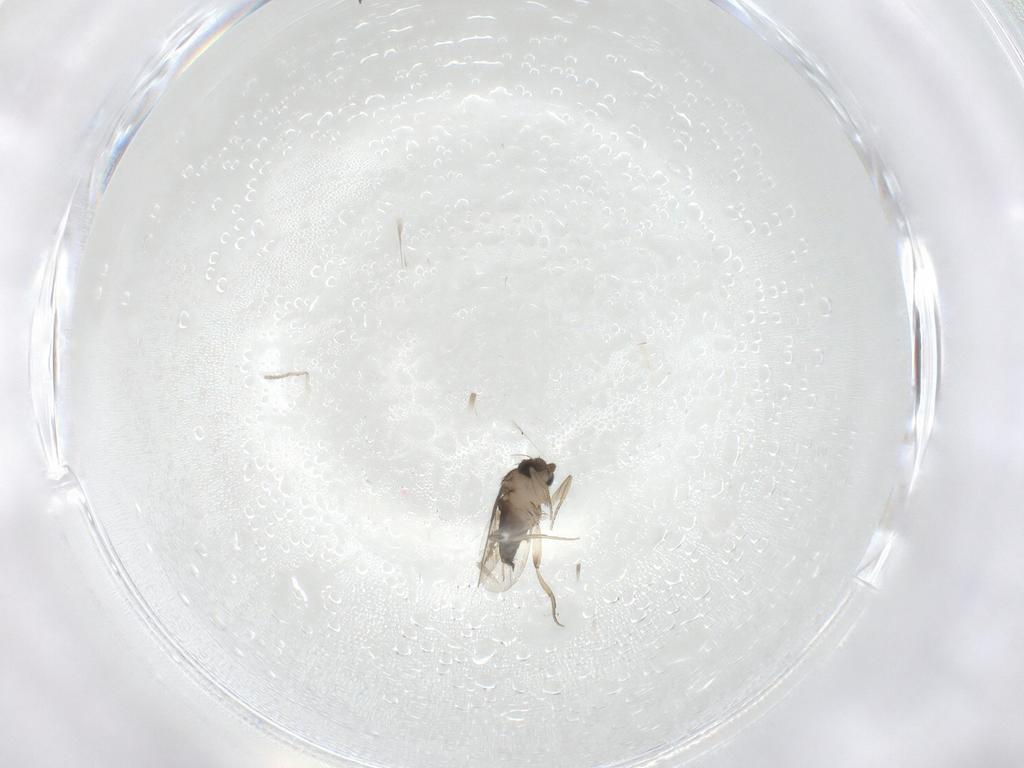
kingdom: Animalia
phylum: Arthropoda
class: Insecta
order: Diptera
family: Phoridae
